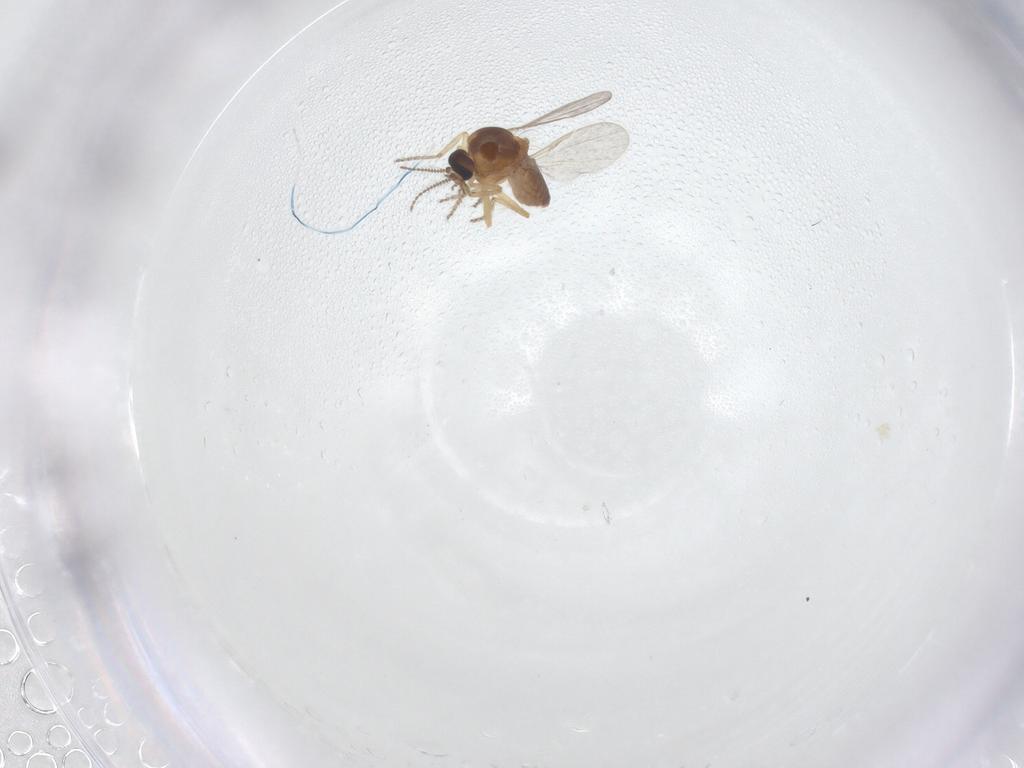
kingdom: Animalia
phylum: Arthropoda
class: Insecta
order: Diptera
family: Ceratopogonidae
